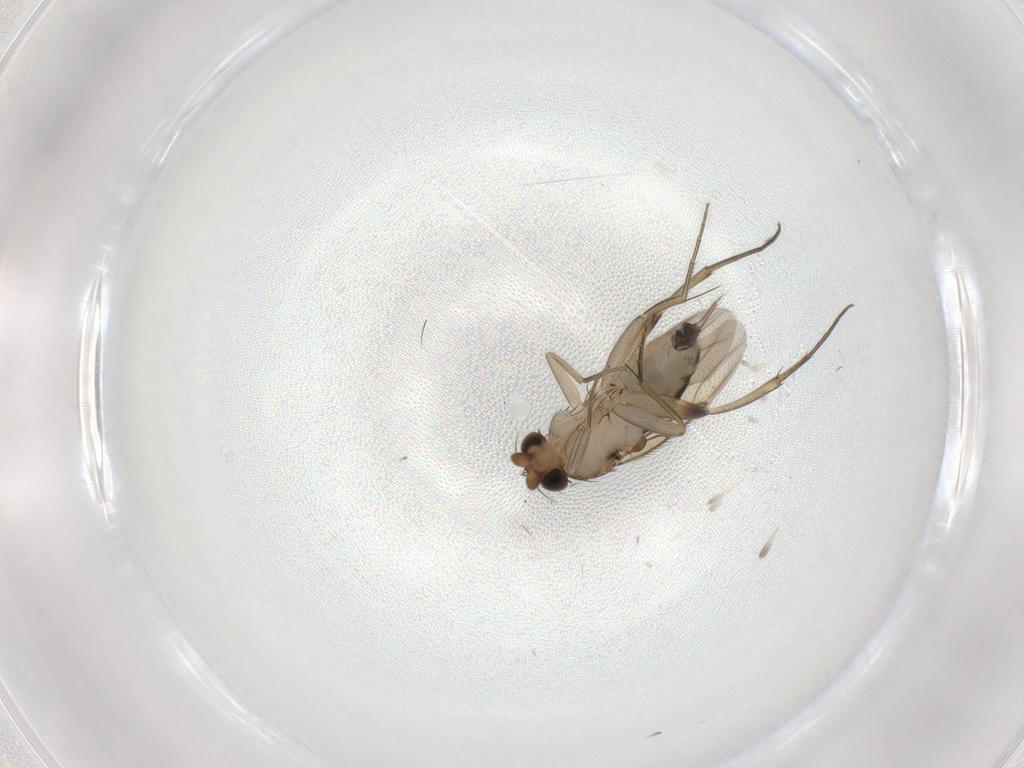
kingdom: Animalia
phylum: Arthropoda
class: Insecta
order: Diptera
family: Phoridae
